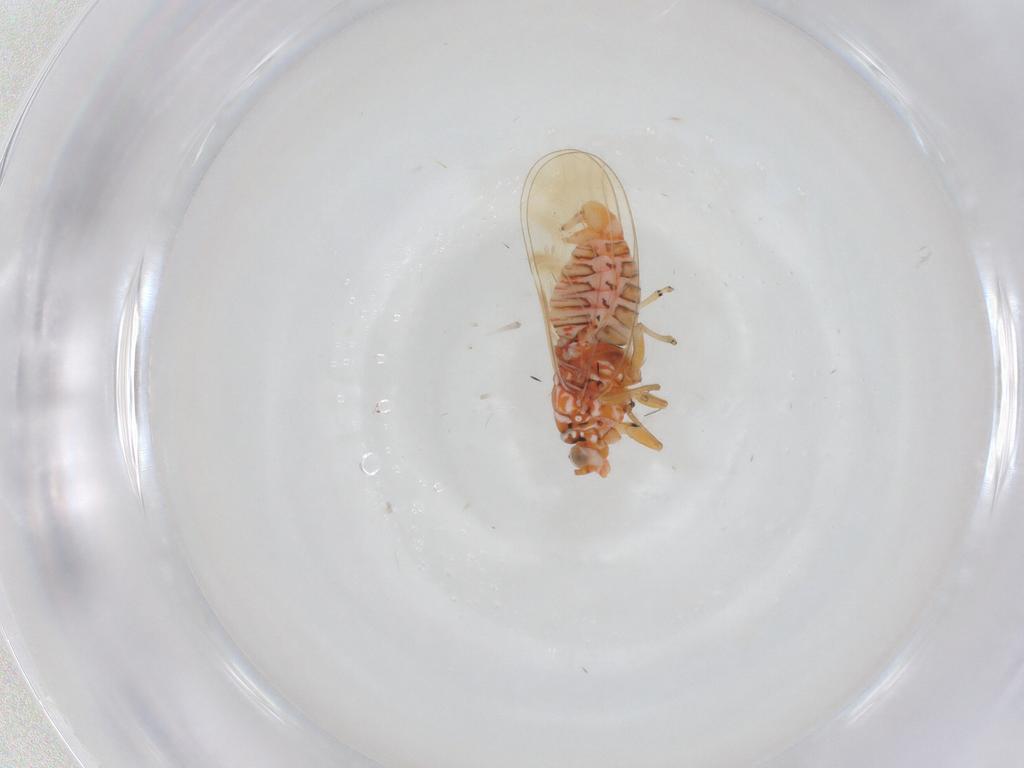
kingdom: Animalia
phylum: Arthropoda
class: Insecta
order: Hemiptera
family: Psyllidae
